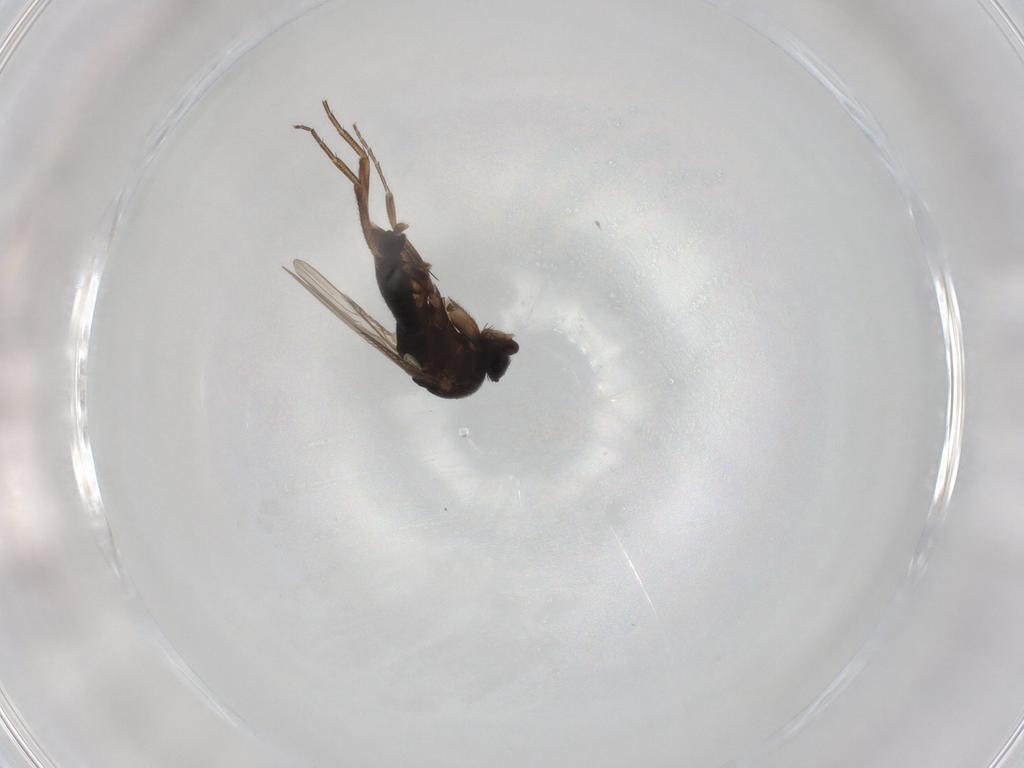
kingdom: Animalia
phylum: Arthropoda
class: Insecta
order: Diptera
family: Phoridae
